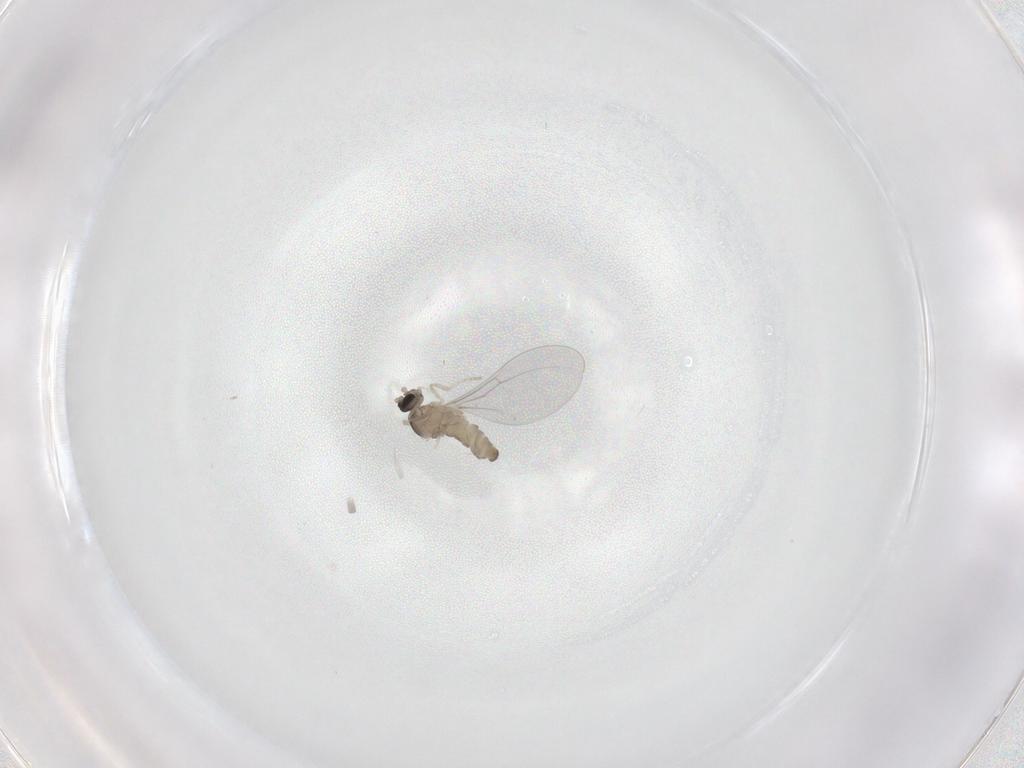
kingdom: Animalia
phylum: Arthropoda
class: Insecta
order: Diptera
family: Cecidomyiidae
